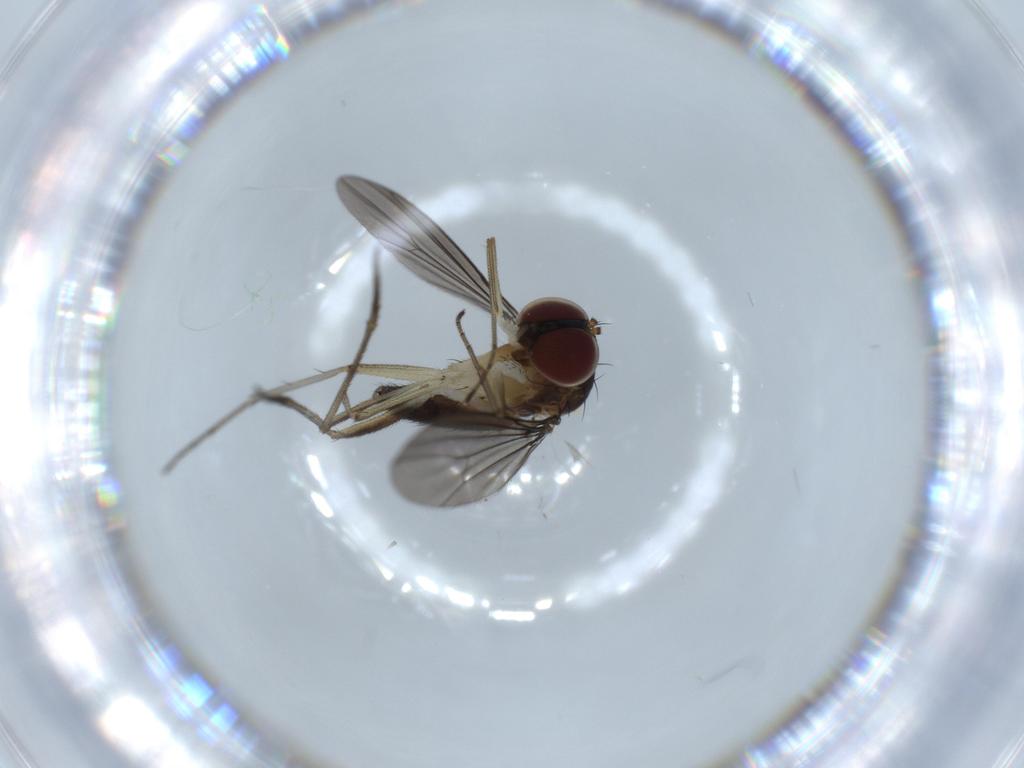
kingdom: Animalia
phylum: Arthropoda
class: Insecta
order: Diptera
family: Dolichopodidae
